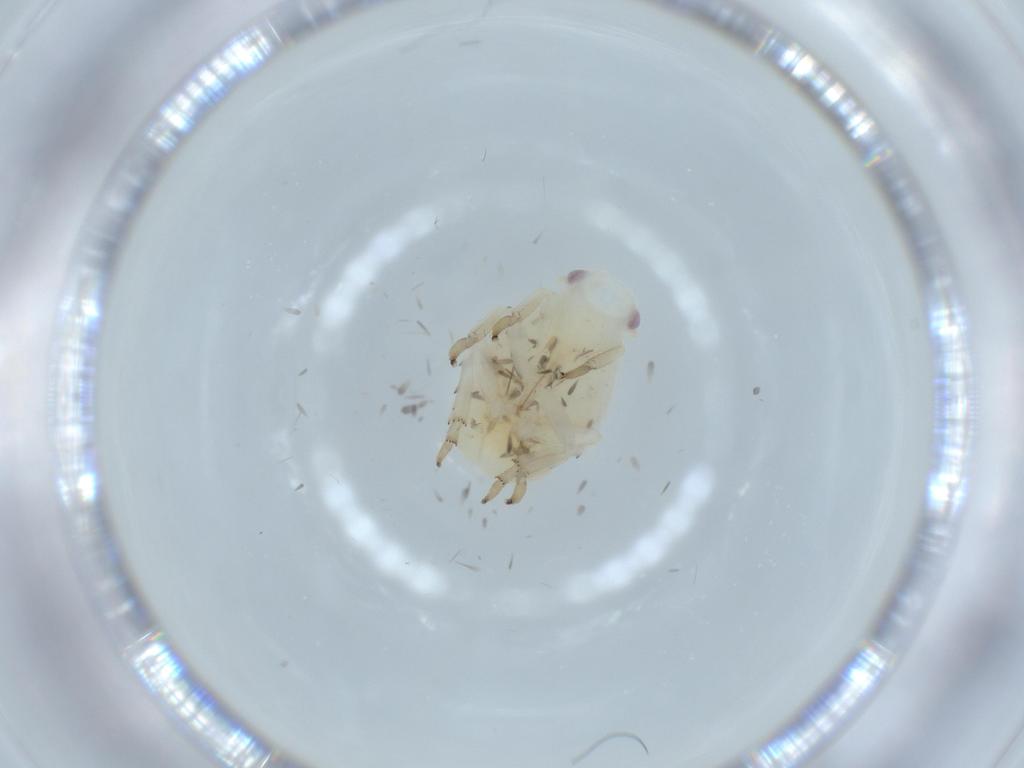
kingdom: Animalia
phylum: Arthropoda
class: Insecta
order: Hemiptera
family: Flatidae
